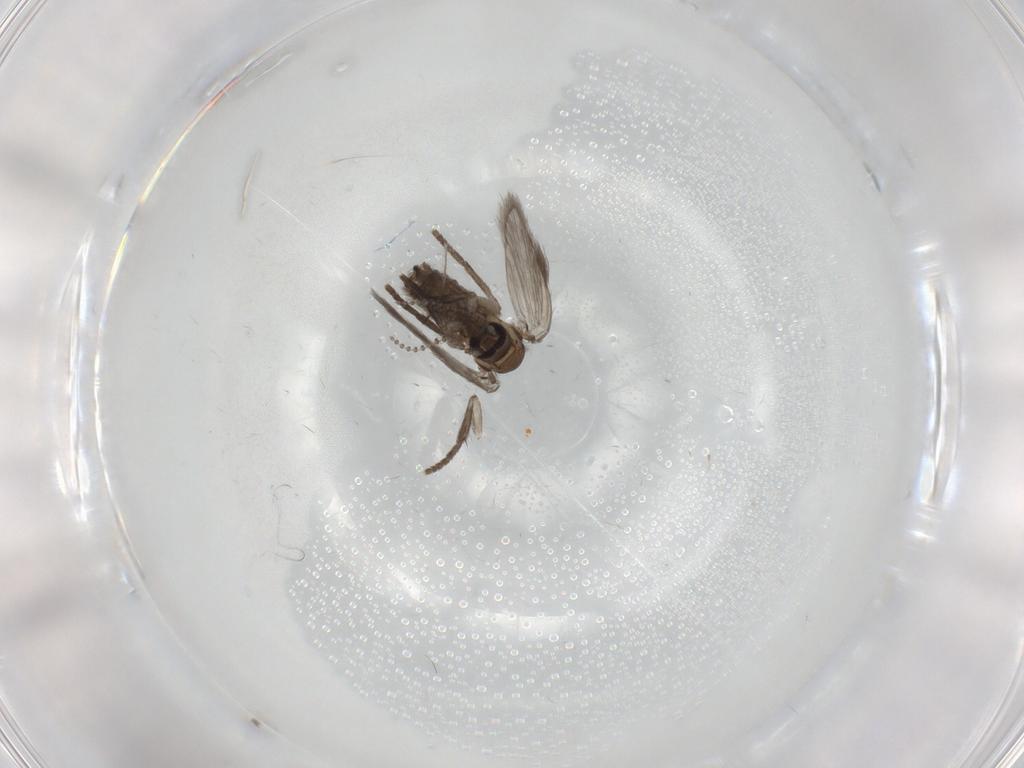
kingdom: Animalia
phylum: Arthropoda
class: Insecta
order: Diptera
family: Psychodidae
